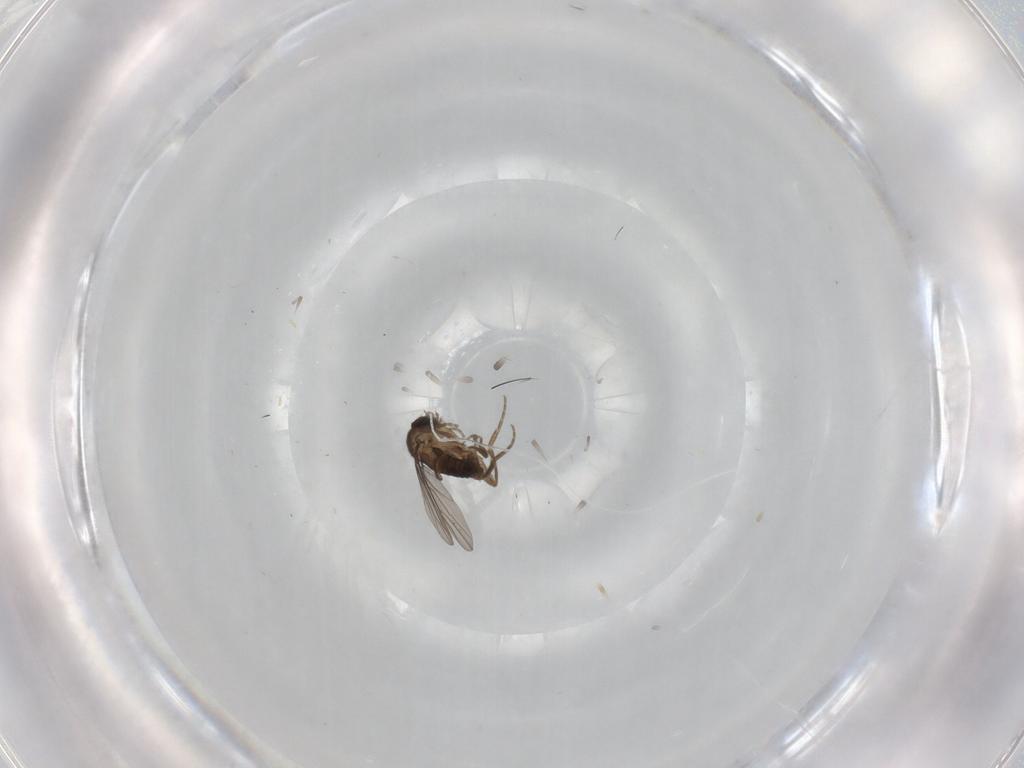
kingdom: Animalia
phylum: Arthropoda
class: Insecta
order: Diptera
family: Phoridae
